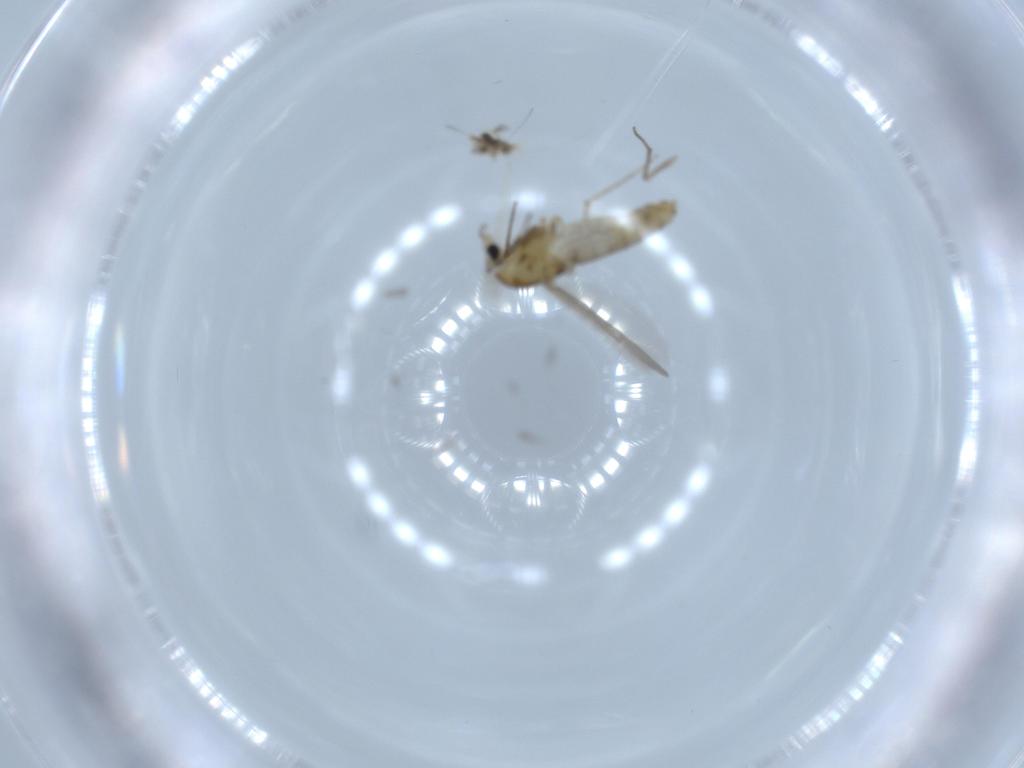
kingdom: Animalia
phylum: Arthropoda
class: Insecta
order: Diptera
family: Chironomidae
